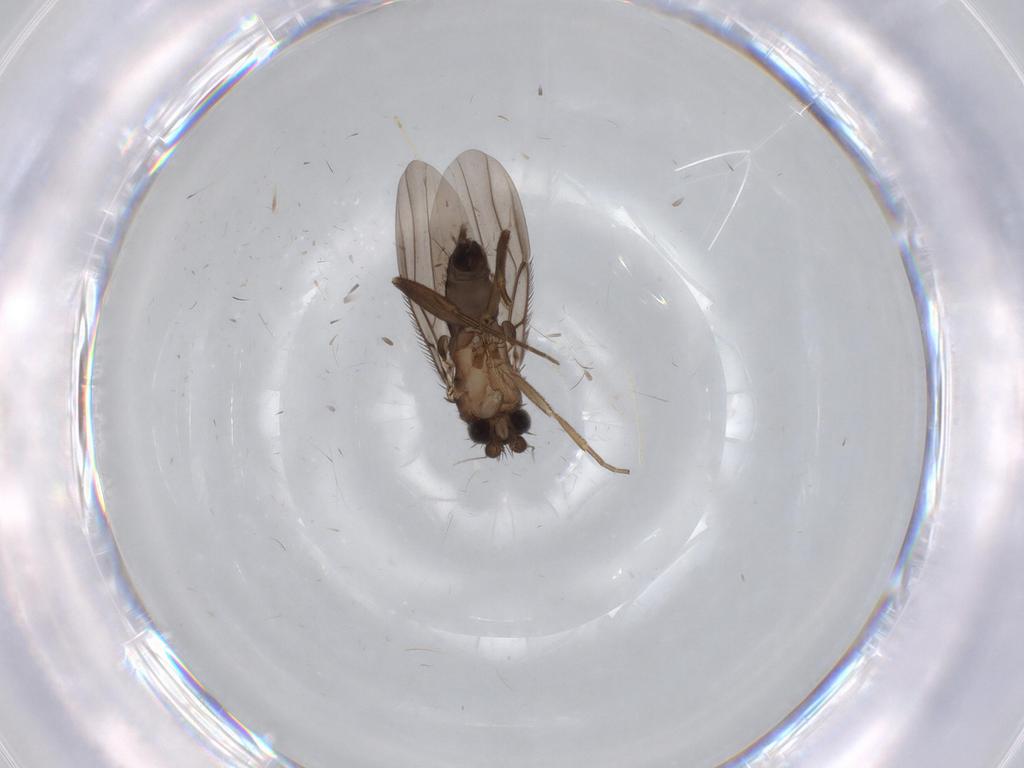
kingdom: Animalia
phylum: Arthropoda
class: Insecta
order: Diptera
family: Cecidomyiidae
